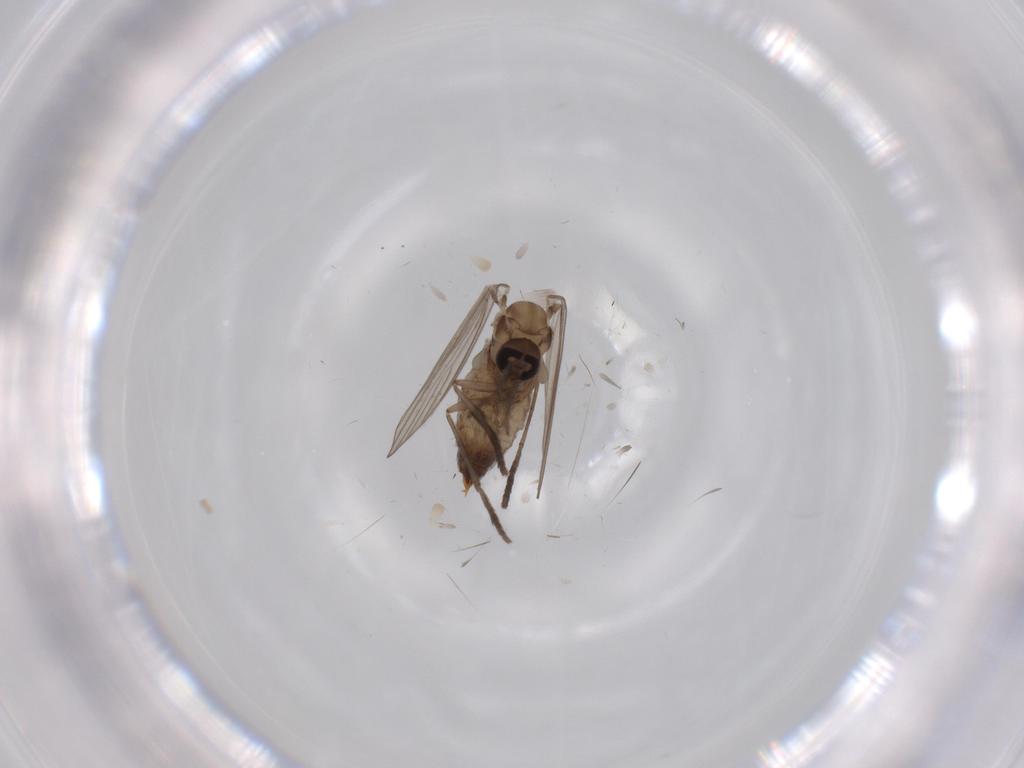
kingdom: Animalia
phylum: Arthropoda
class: Insecta
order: Diptera
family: Psychodidae
